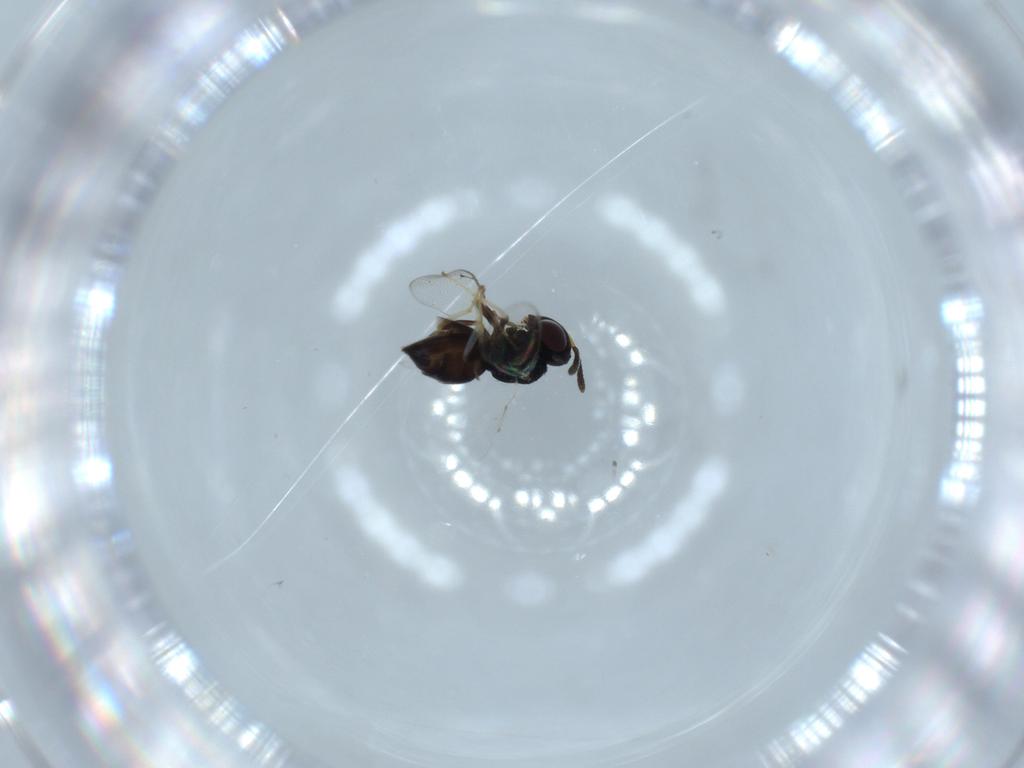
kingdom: Animalia
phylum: Arthropoda
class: Insecta
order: Hymenoptera
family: Pteromalidae
